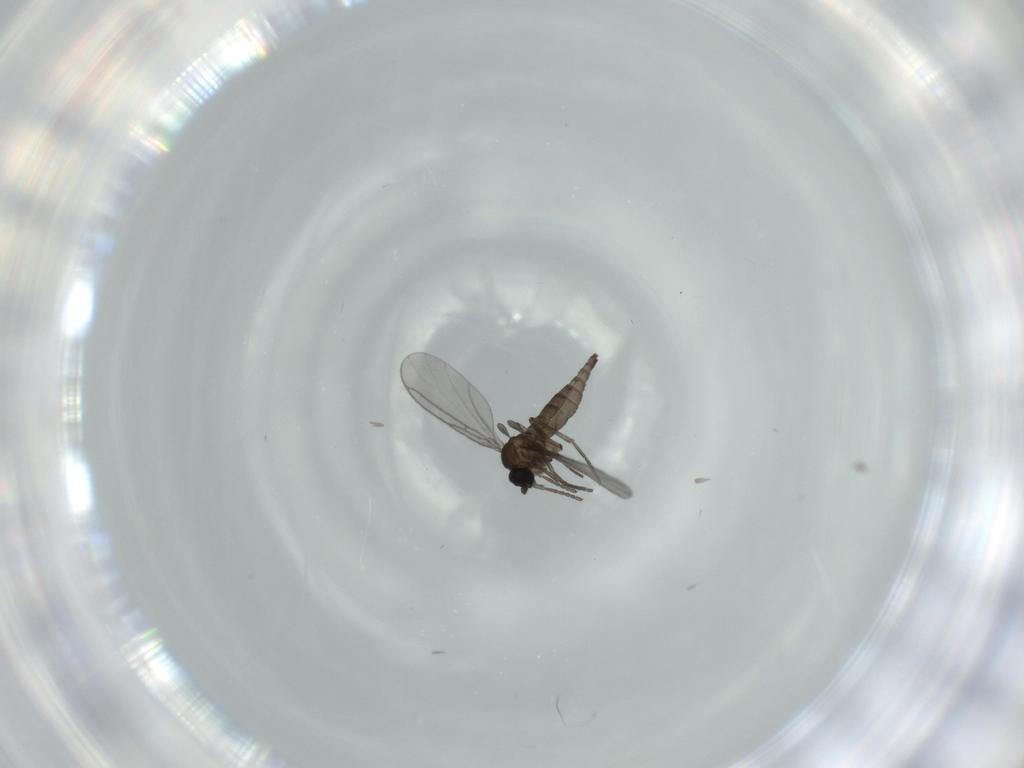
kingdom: Animalia
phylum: Arthropoda
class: Insecta
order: Diptera
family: Cecidomyiidae
